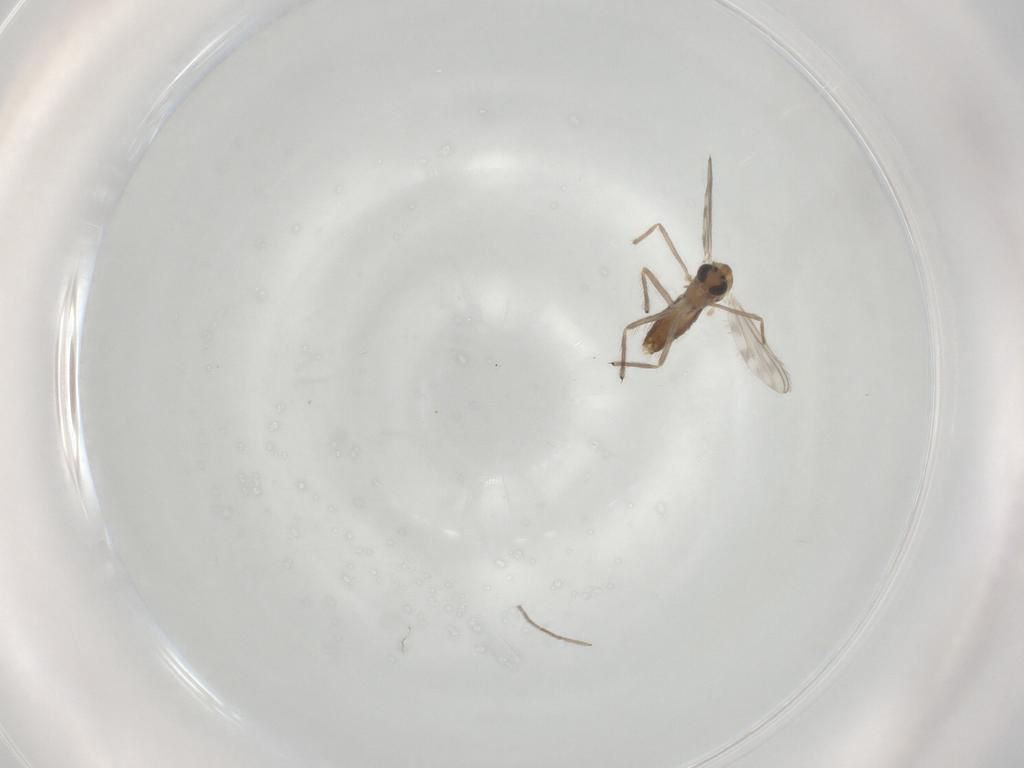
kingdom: Animalia
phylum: Arthropoda
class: Insecta
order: Diptera
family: Chironomidae
